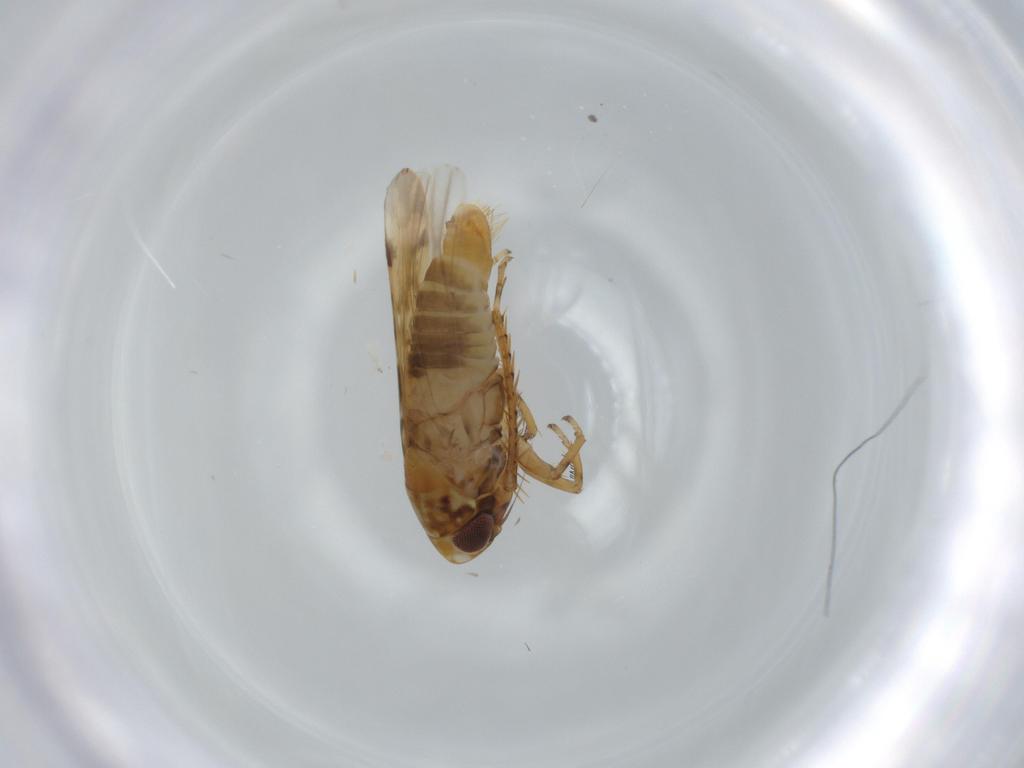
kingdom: Animalia
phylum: Arthropoda
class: Insecta
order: Hemiptera
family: Cicadellidae
